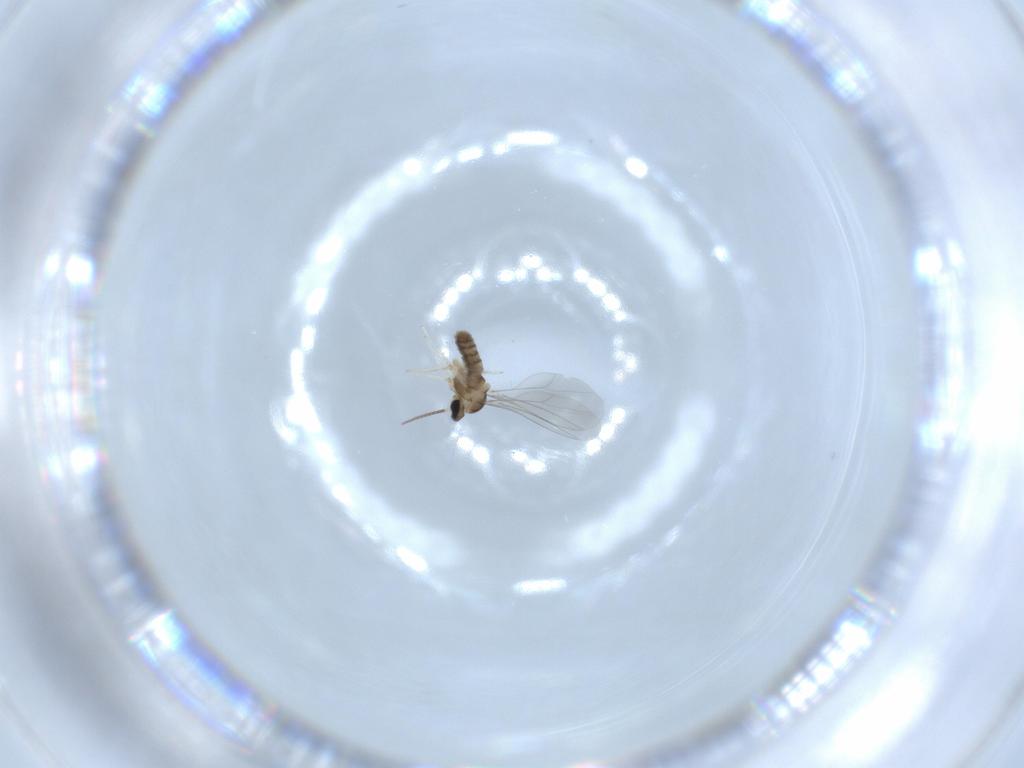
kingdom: Animalia
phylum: Arthropoda
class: Insecta
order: Diptera
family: Cecidomyiidae
